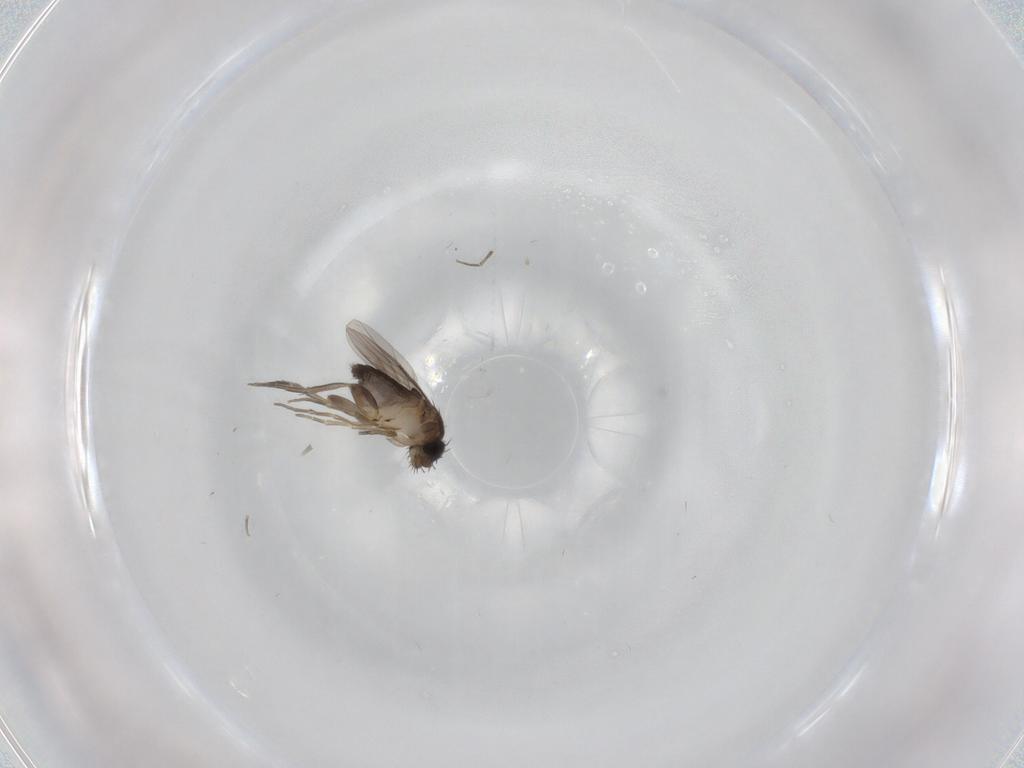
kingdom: Animalia
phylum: Arthropoda
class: Insecta
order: Diptera
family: Phoridae
